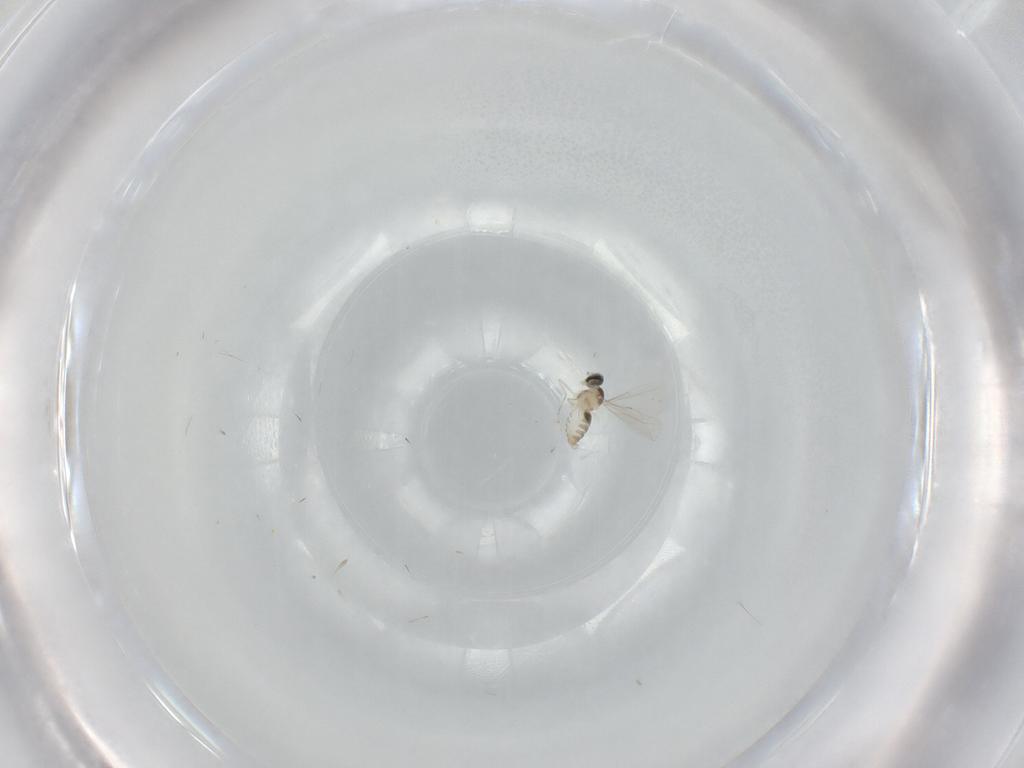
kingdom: Animalia
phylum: Arthropoda
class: Insecta
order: Diptera
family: Cecidomyiidae
